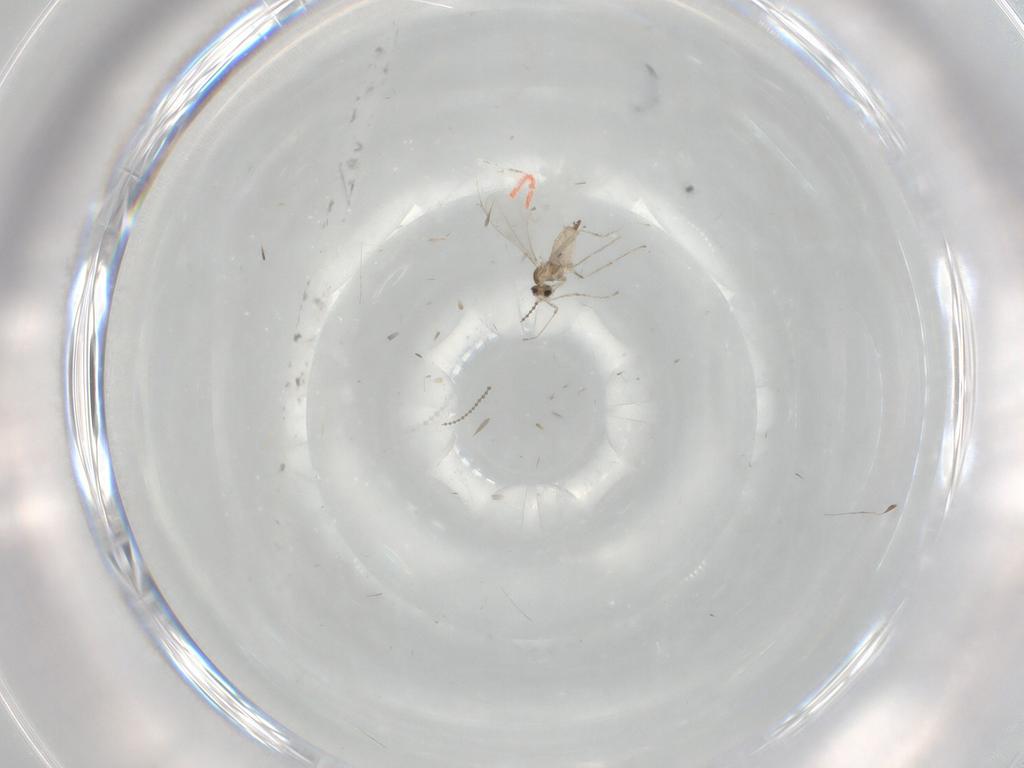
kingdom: Animalia
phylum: Arthropoda
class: Insecta
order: Diptera
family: Cecidomyiidae
